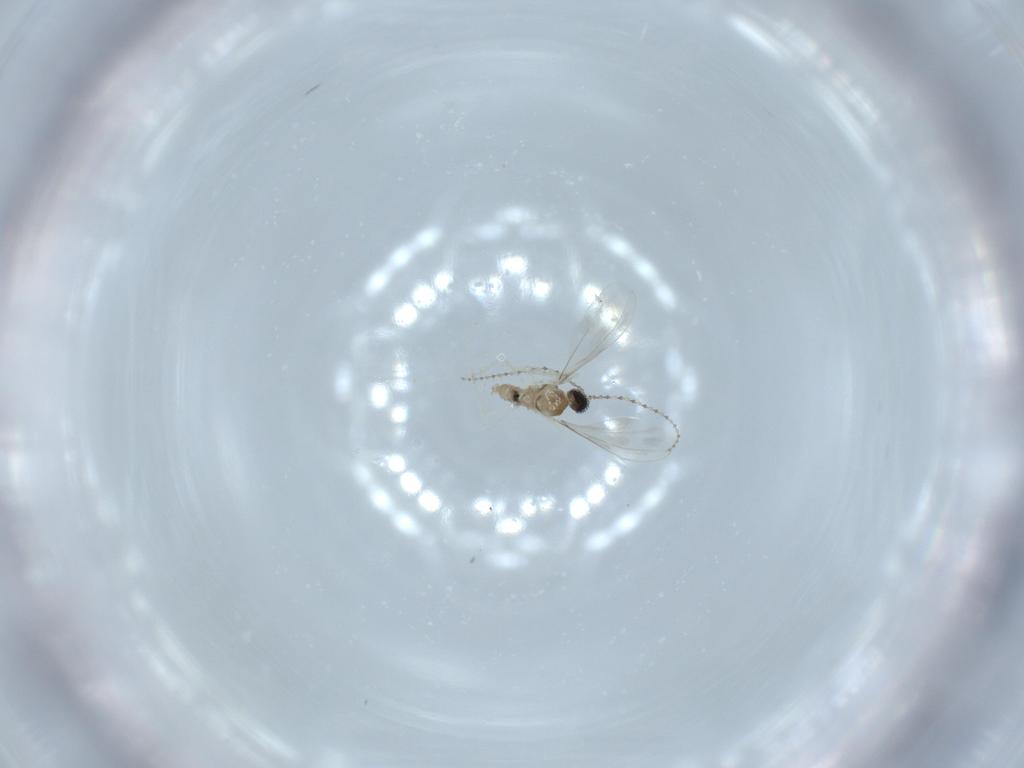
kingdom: Animalia
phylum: Arthropoda
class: Insecta
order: Diptera
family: Cecidomyiidae
